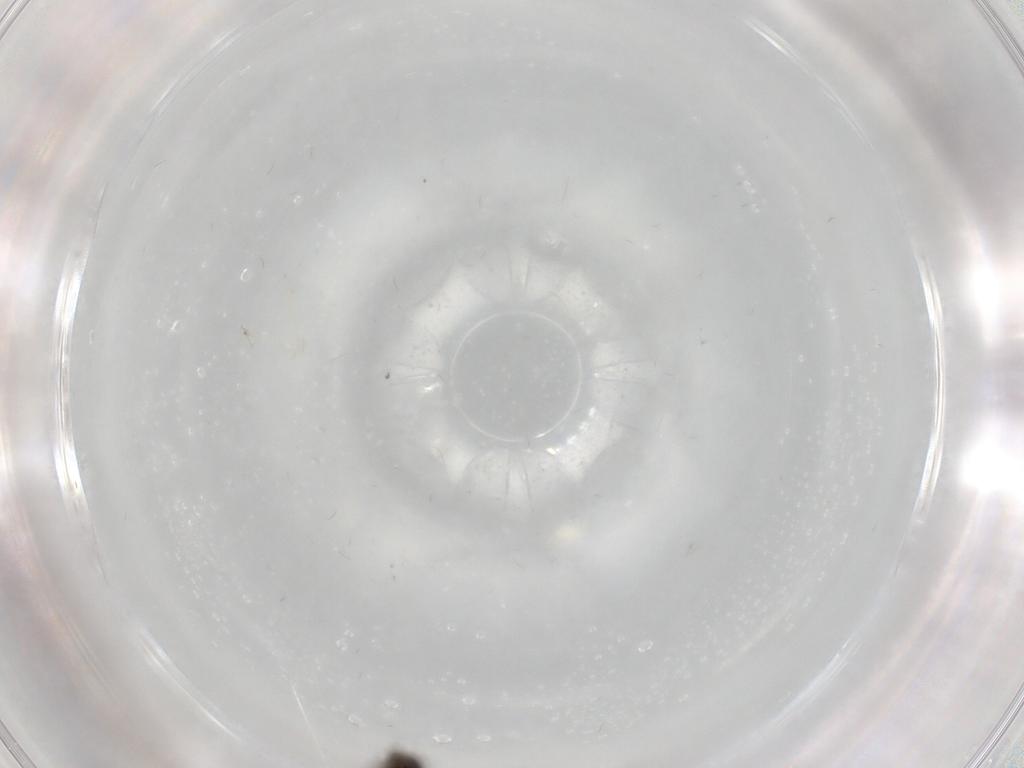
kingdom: Animalia
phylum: Arthropoda
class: Insecta
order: Diptera
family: Ceratopogonidae
